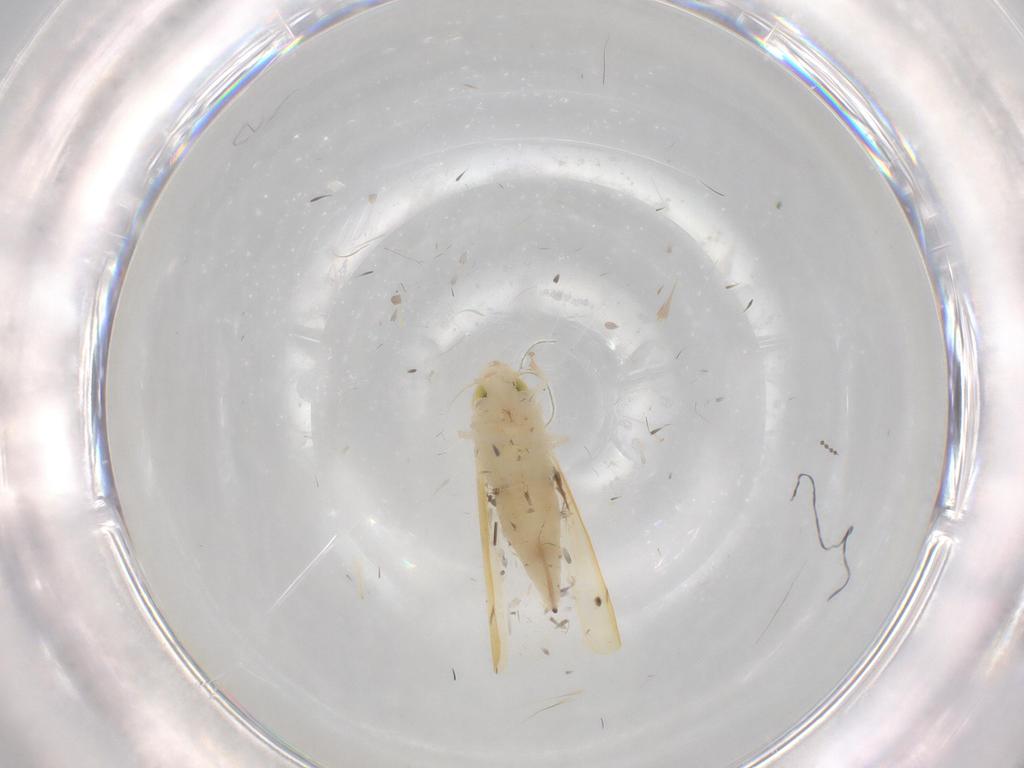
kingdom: Animalia
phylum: Arthropoda
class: Insecta
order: Hemiptera
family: Cicadellidae
